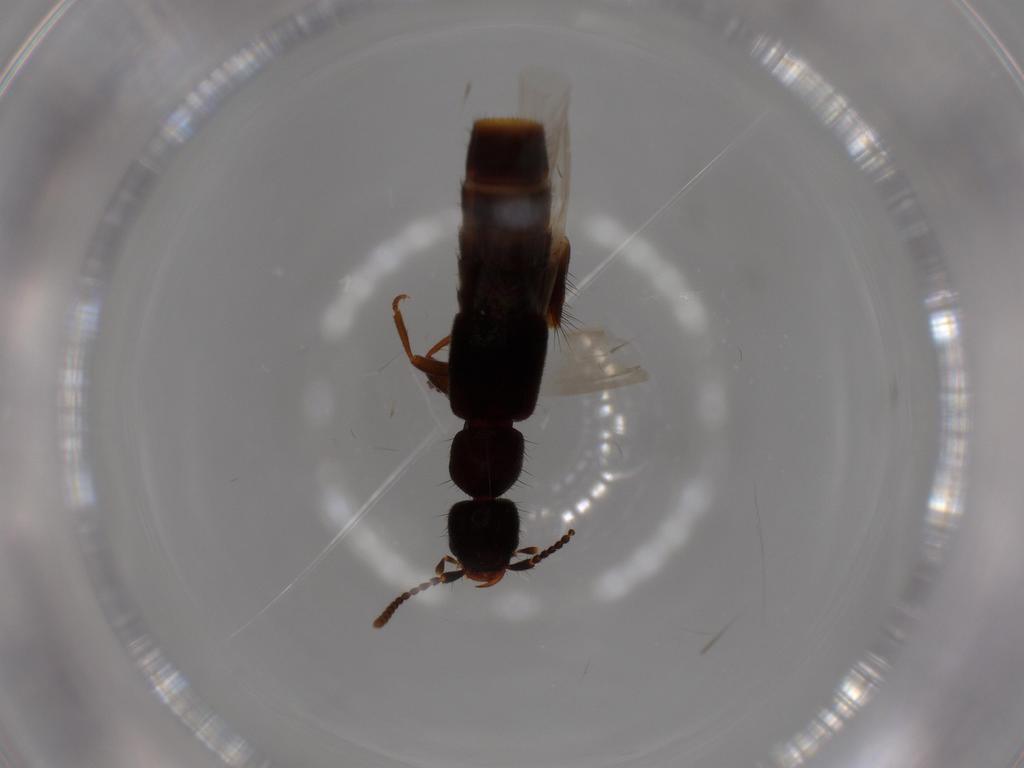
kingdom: Animalia
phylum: Arthropoda
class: Insecta
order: Coleoptera
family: Staphylinidae
